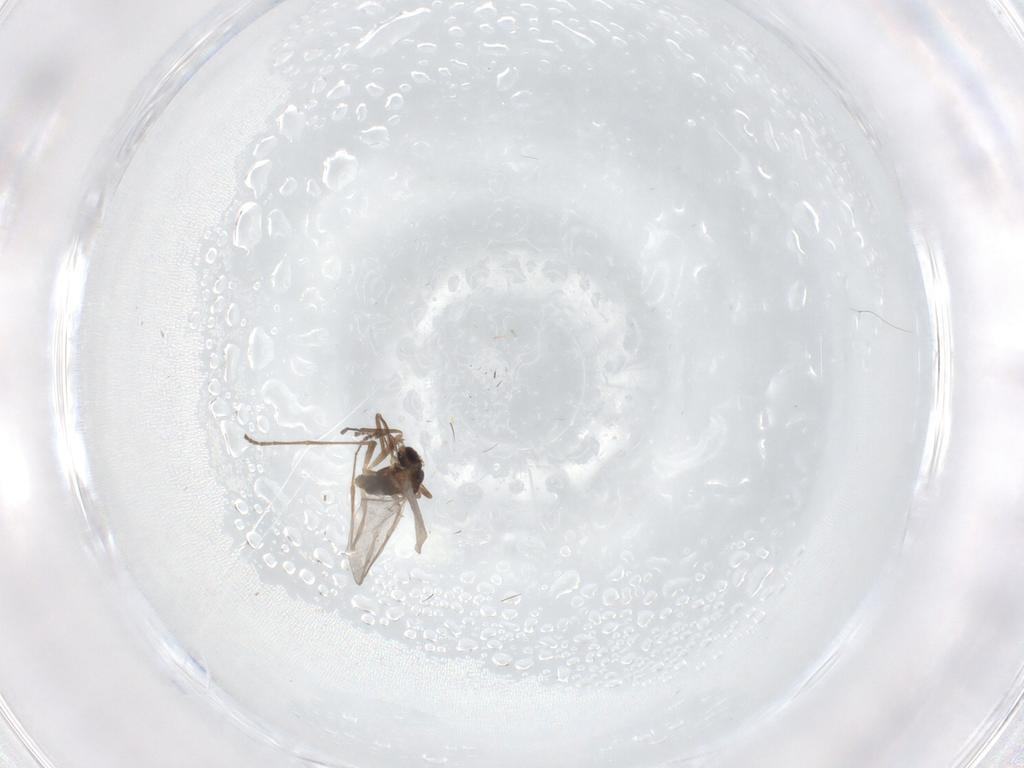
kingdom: Animalia
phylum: Arthropoda
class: Insecta
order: Diptera
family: Cecidomyiidae
